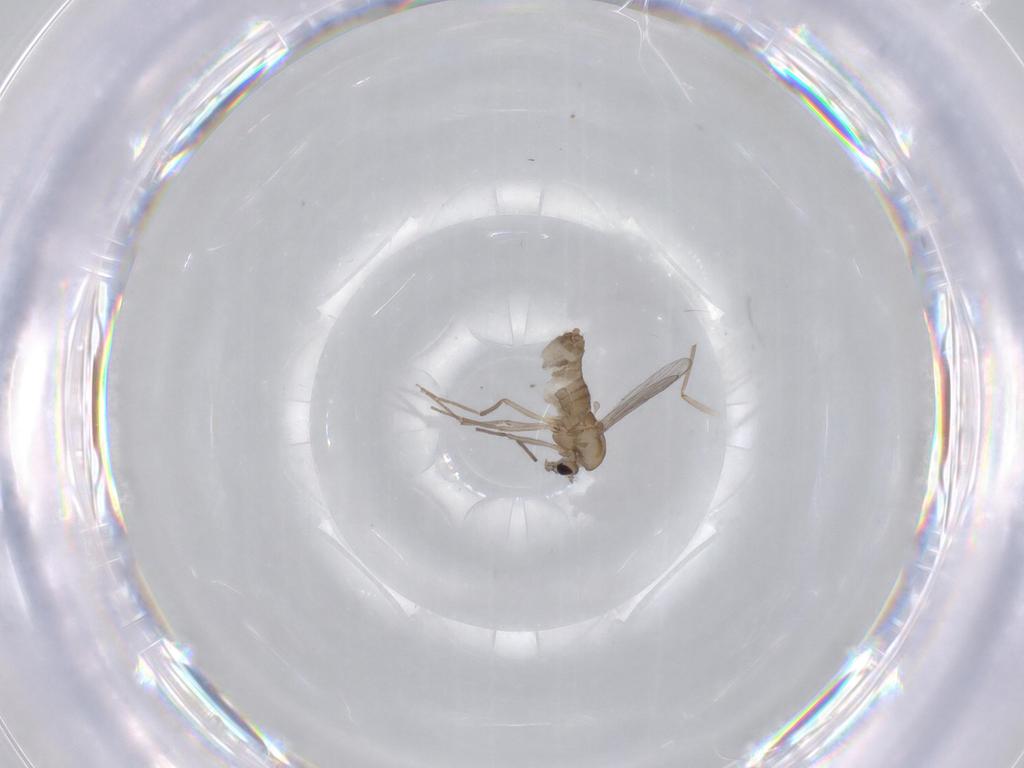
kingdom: Animalia
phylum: Arthropoda
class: Insecta
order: Diptera
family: Chironomidae
